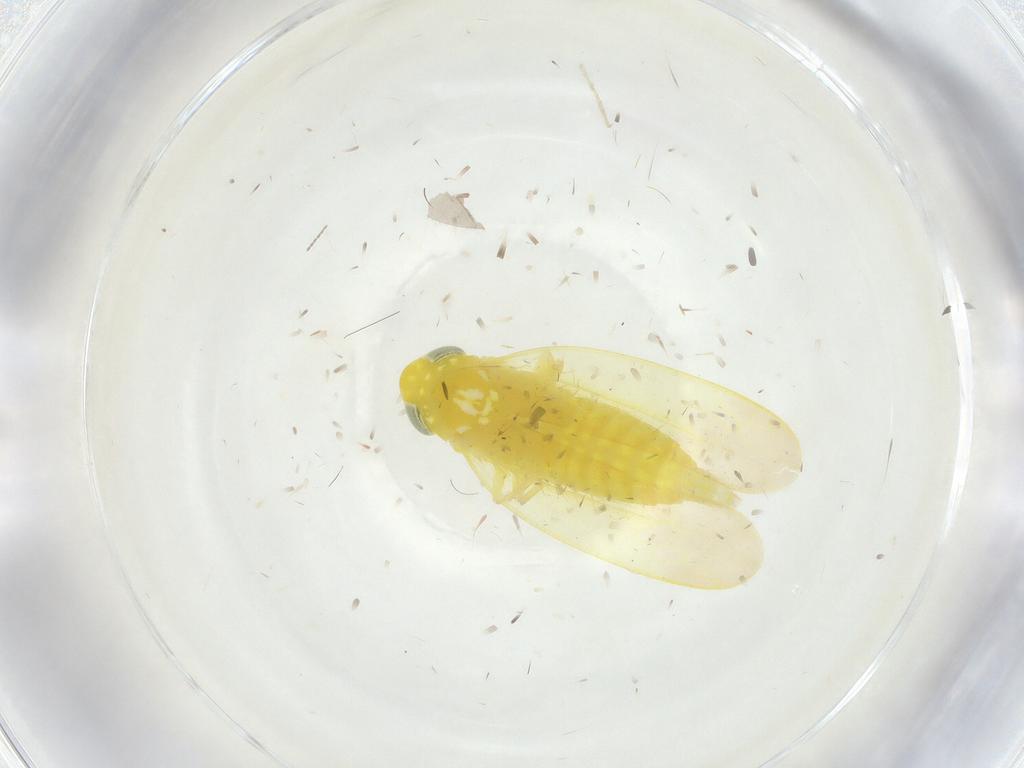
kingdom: Animalia
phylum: Arthropoda
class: Insecta
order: Hemiptera
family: Cicadellidae
